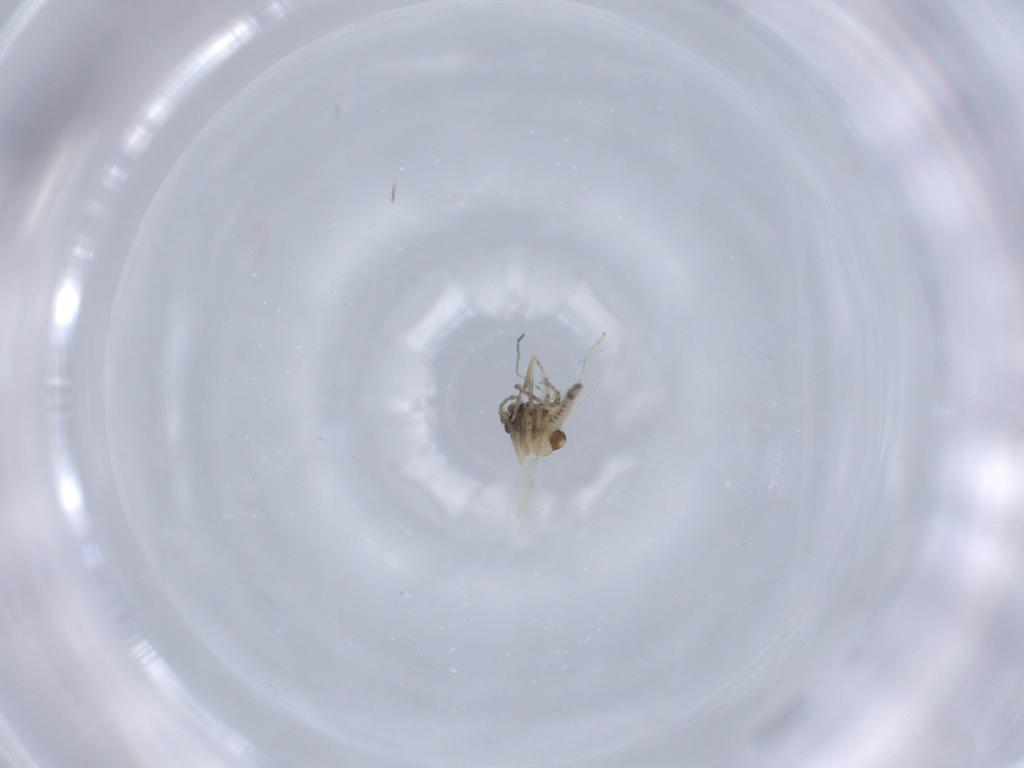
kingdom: Animalia
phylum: Arthropoda
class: Insecta
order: Diptera
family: Ceratopogonidae
